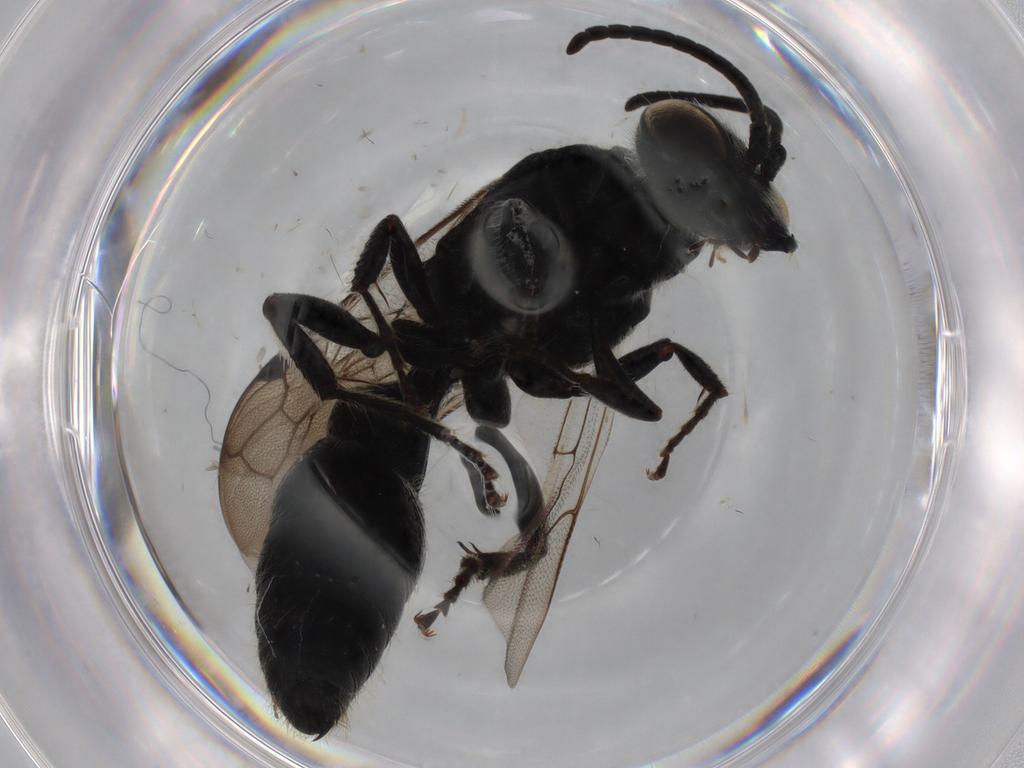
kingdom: Animalia
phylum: Arthropoda
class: Insecta
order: Hymenoptera
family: Tiphiidae
